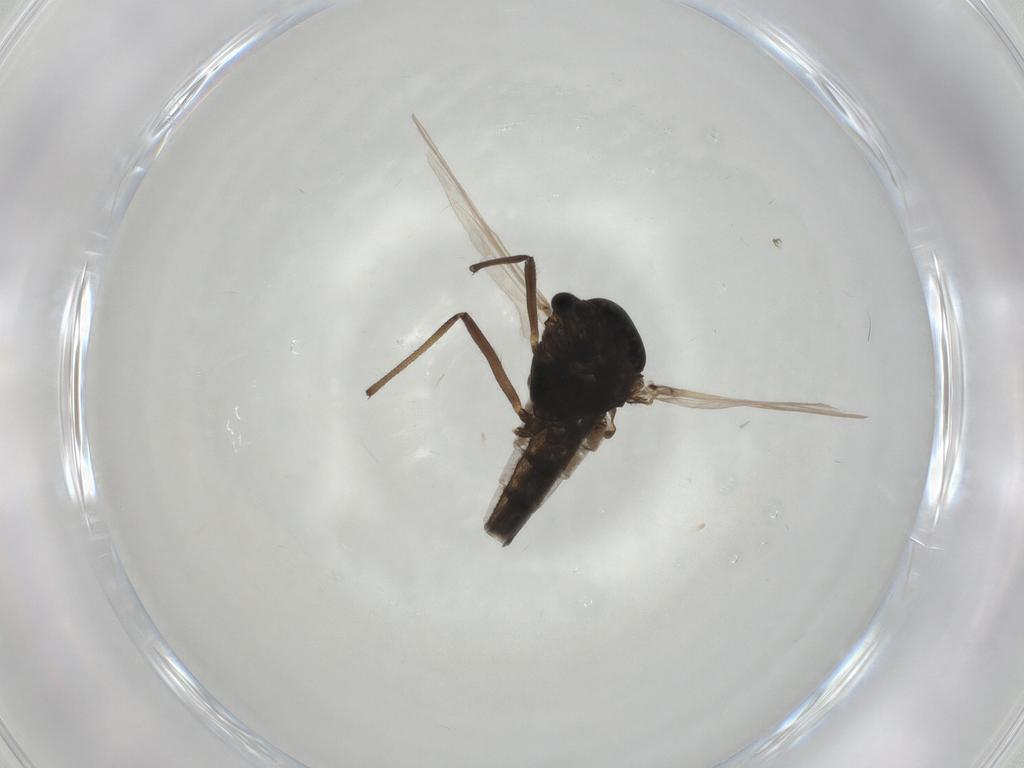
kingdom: Animalia
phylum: Arthropoda
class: Insecta
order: Diptera
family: Chironomidae
